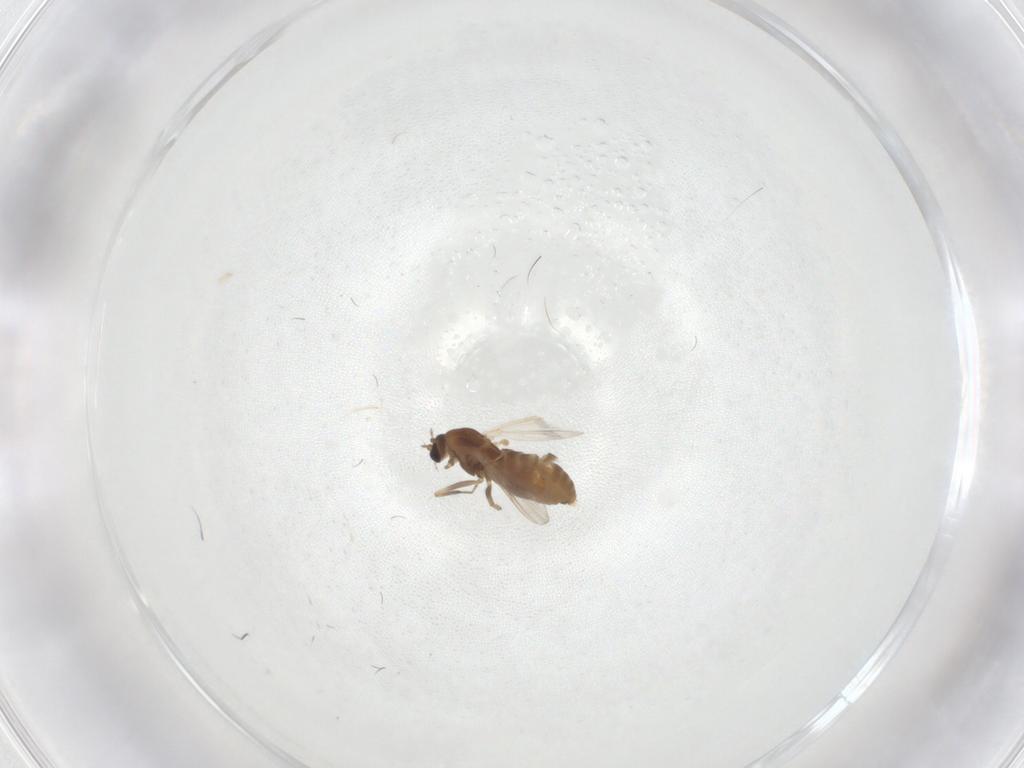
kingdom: Animalia
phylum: Arthropoda
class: Insecta
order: Diptera
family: Chironomidae
